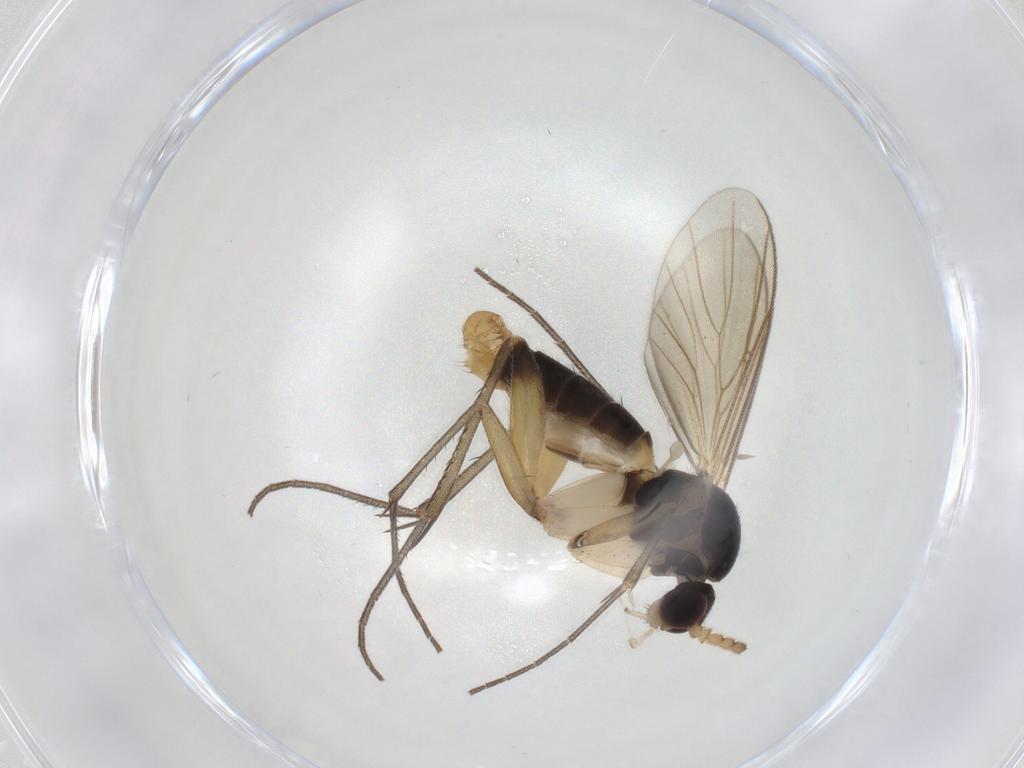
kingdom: Animalia
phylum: Arthropoda
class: Insecta
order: Diptera
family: Mycetophilidae
